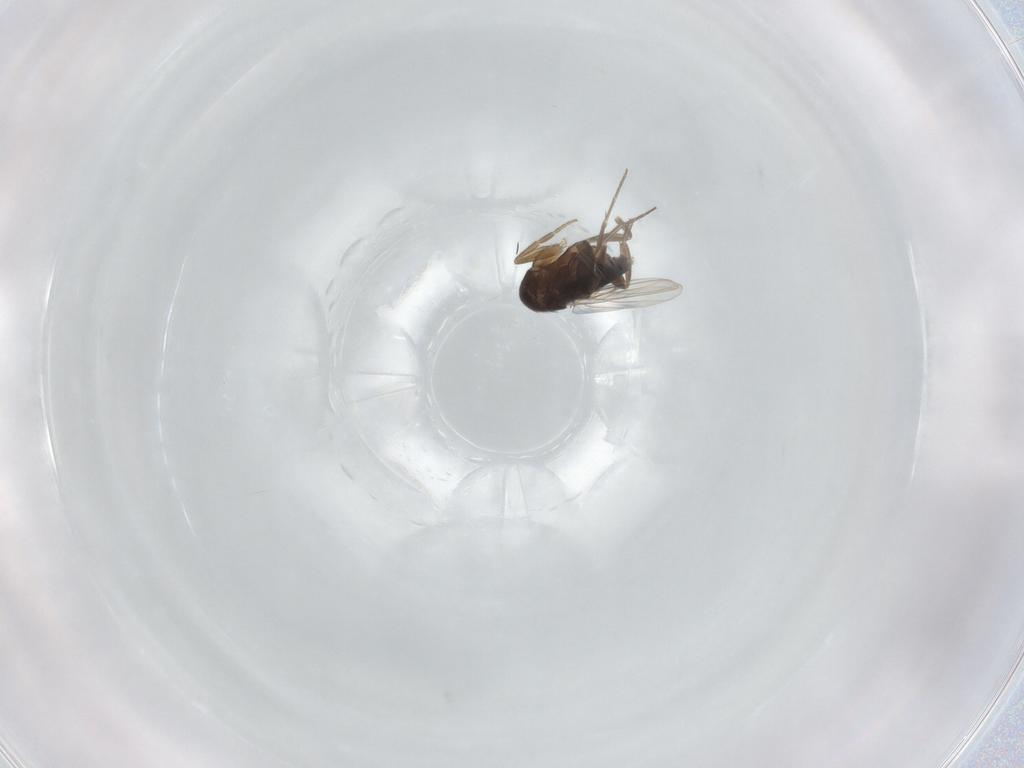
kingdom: Animalia
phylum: Arthropoda
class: Insecta
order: Diptera
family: Phoridae
